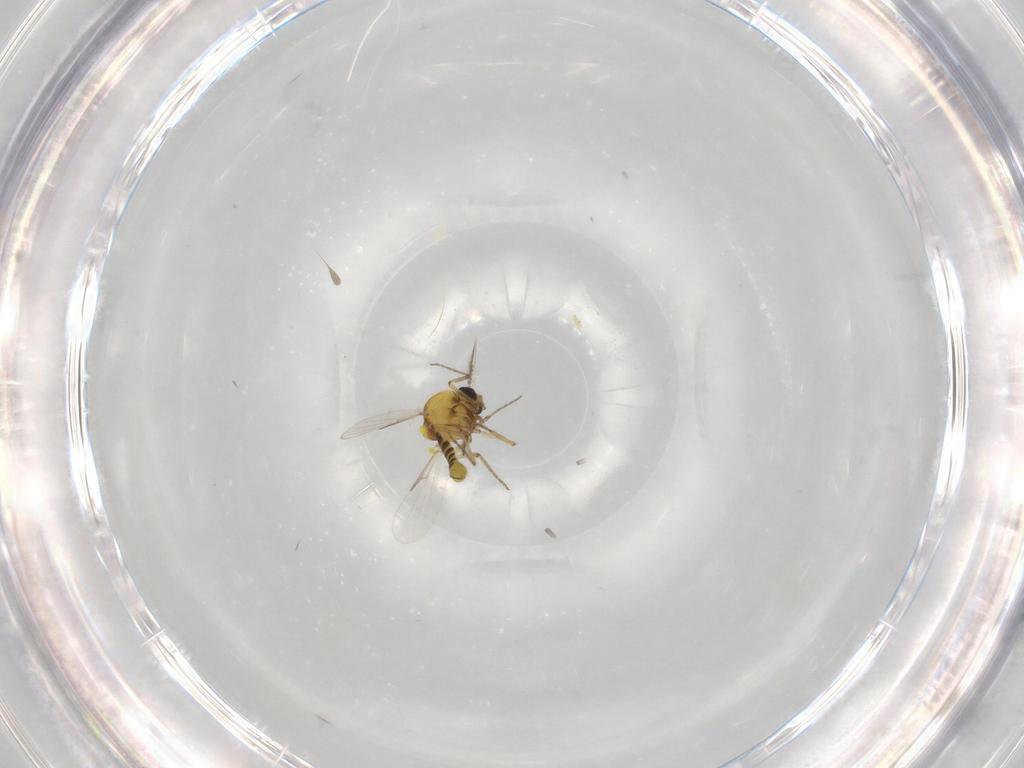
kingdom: Animalia
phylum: Arthropoda
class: Insecta
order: Diptera
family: Ceratopogonidae
